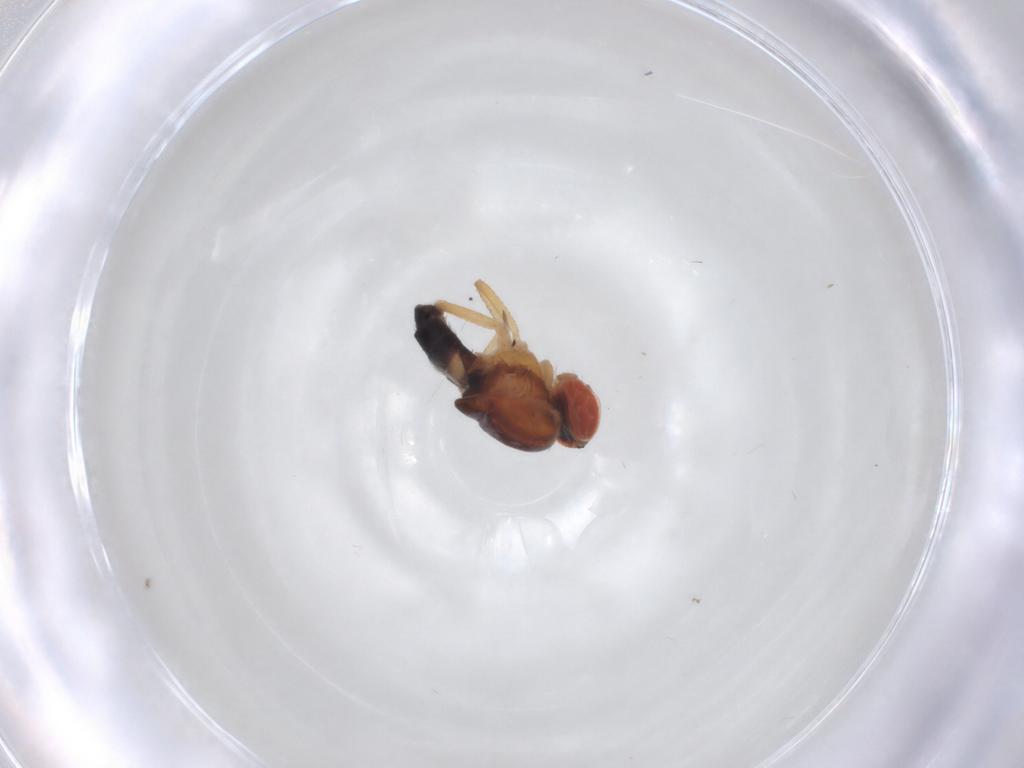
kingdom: Animalia
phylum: Arthropoda
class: Insecta
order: Diptera
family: Drosophilidae
